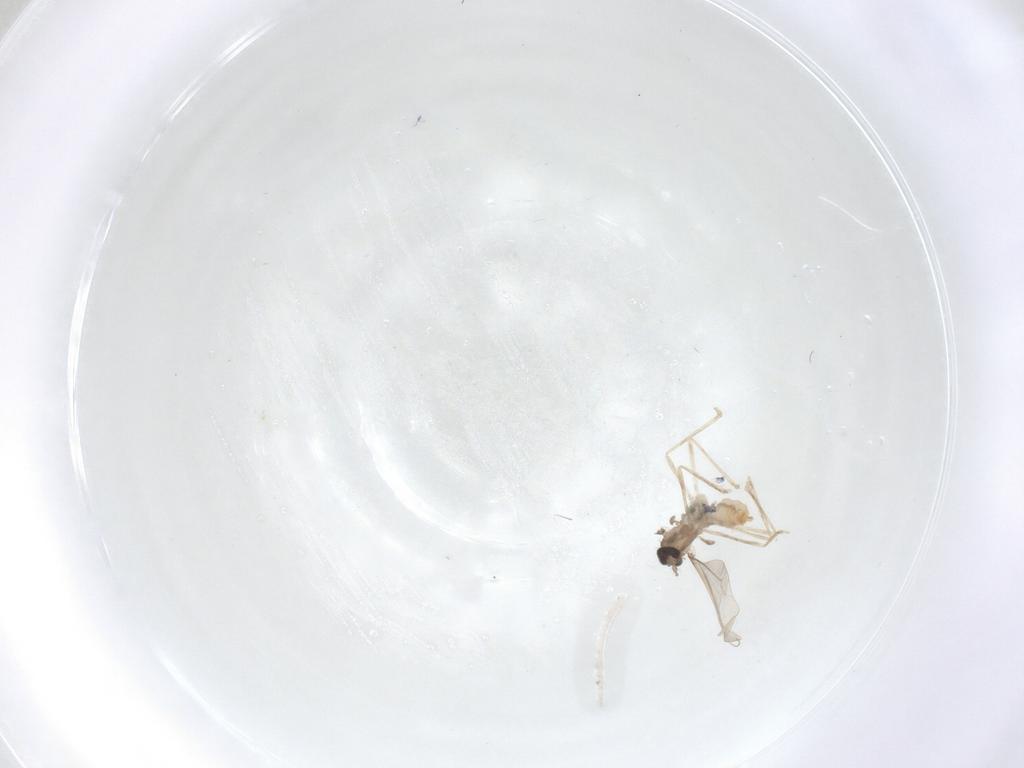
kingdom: Animalia
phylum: Arthropoda
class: Insecta
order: Diptera
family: Cecidomyiidae
